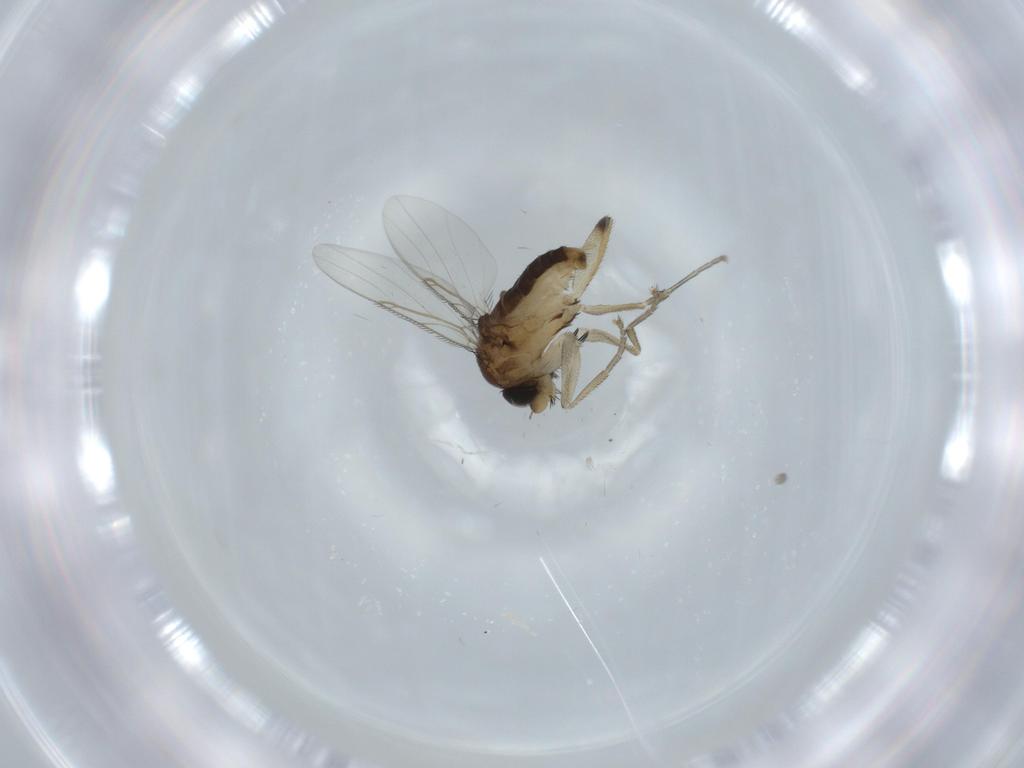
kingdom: Animalia
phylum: Arthropoda
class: Insecta
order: Diptera
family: Phoridae
